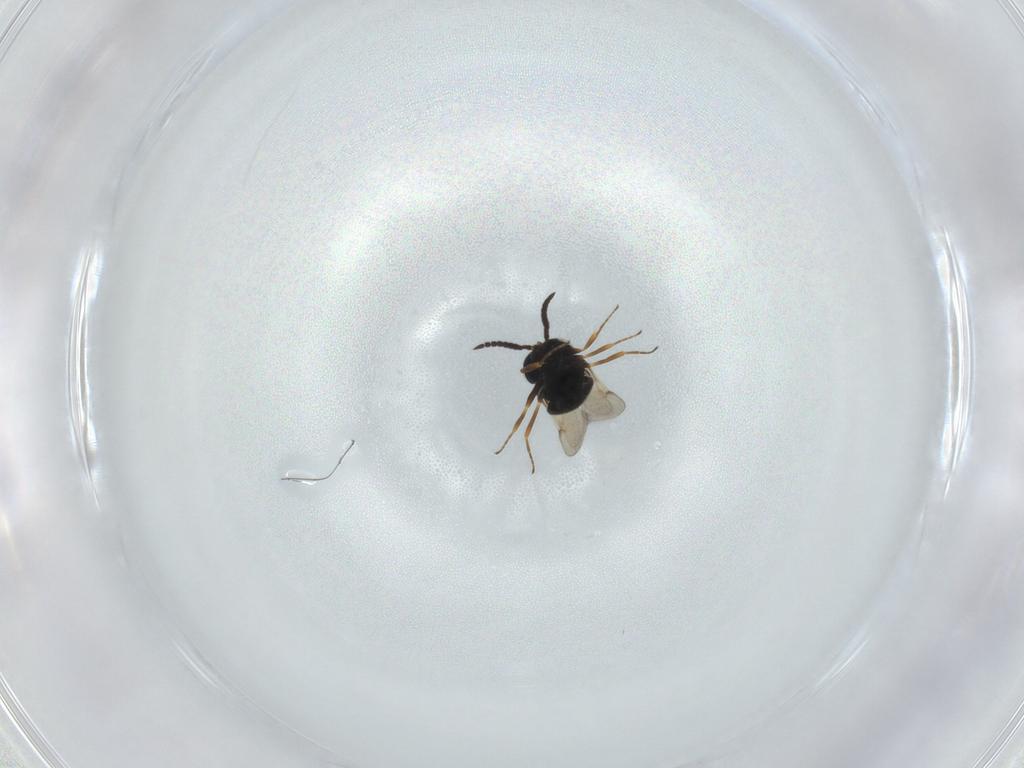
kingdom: Animalia
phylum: Arthropoda
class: Insecta
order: Hymenoptera
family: Scelionidae
